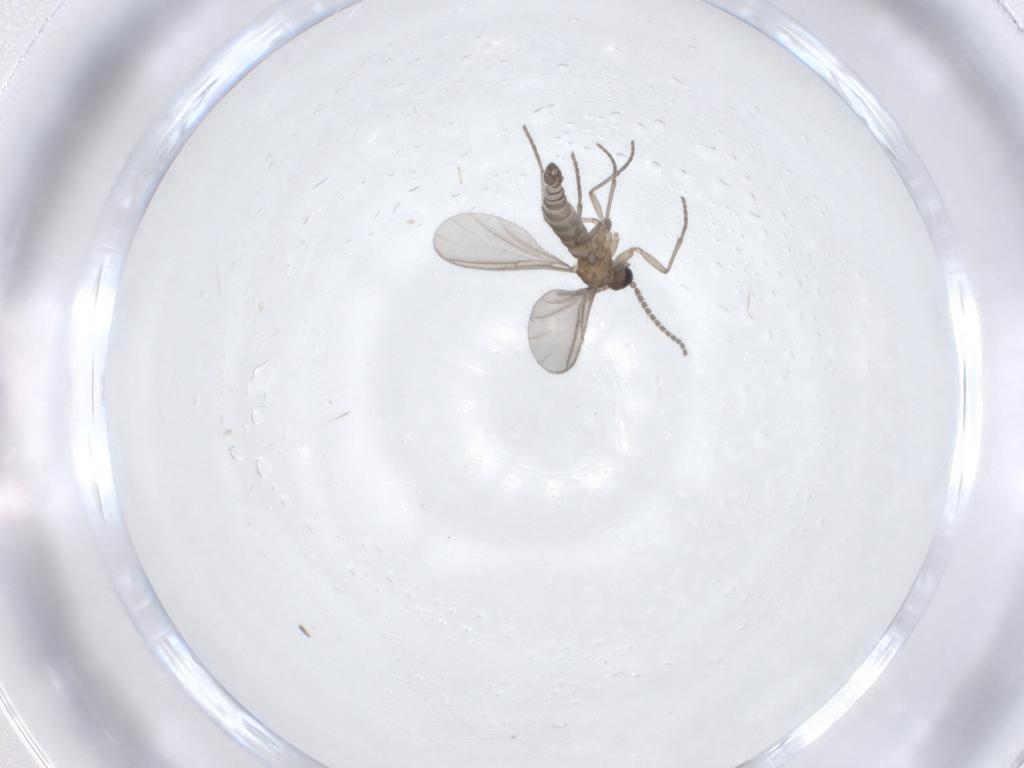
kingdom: Animalia
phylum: Arthropoda
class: Insecta
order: Diptera
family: Sciaridae
